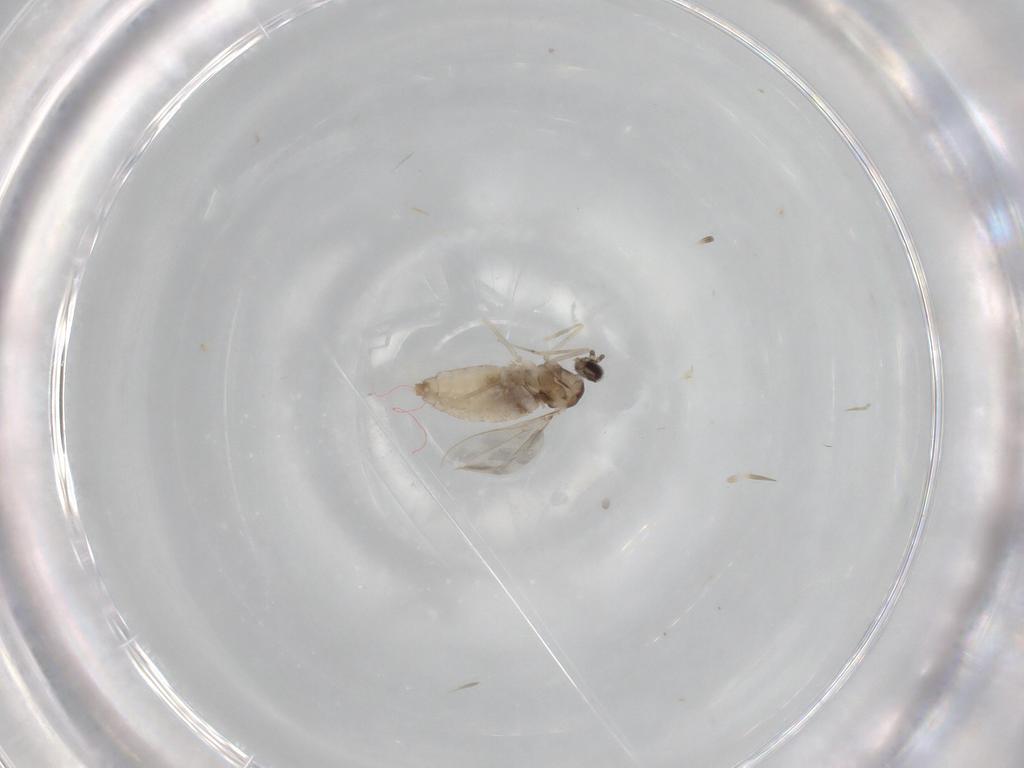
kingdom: Animalia
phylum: Arthropoda
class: Insecta
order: Diptera
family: Cecidomyiidae
